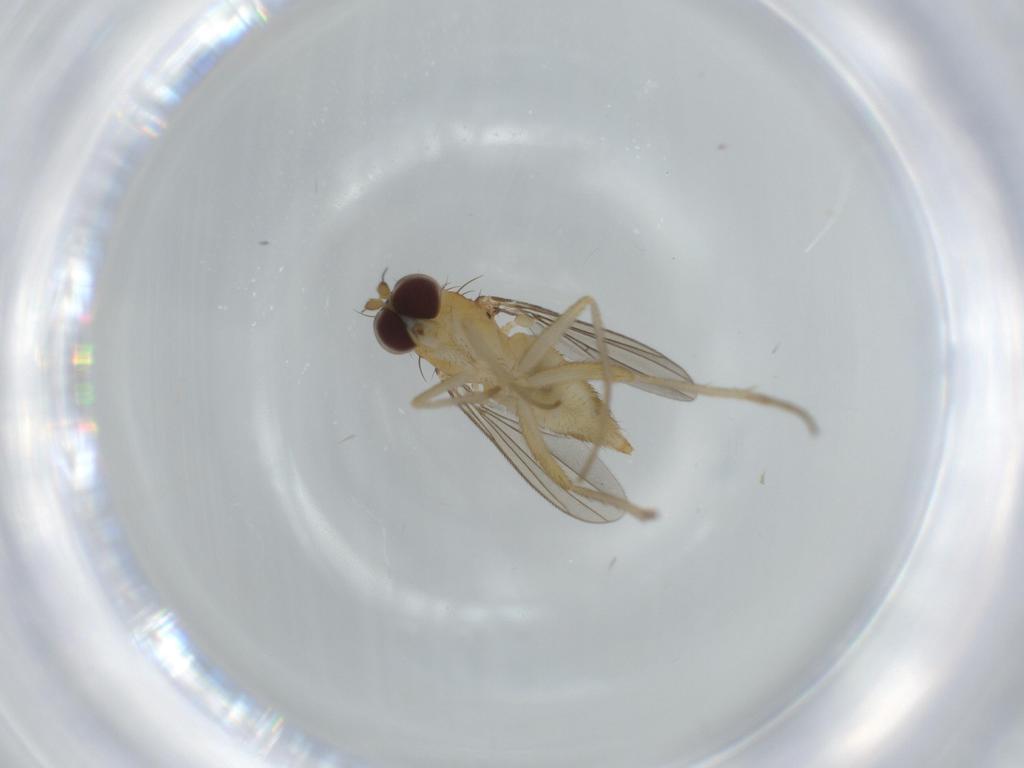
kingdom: Animalia
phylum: Arthropoda
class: Insecta
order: Diptera
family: Dolichopodidae
